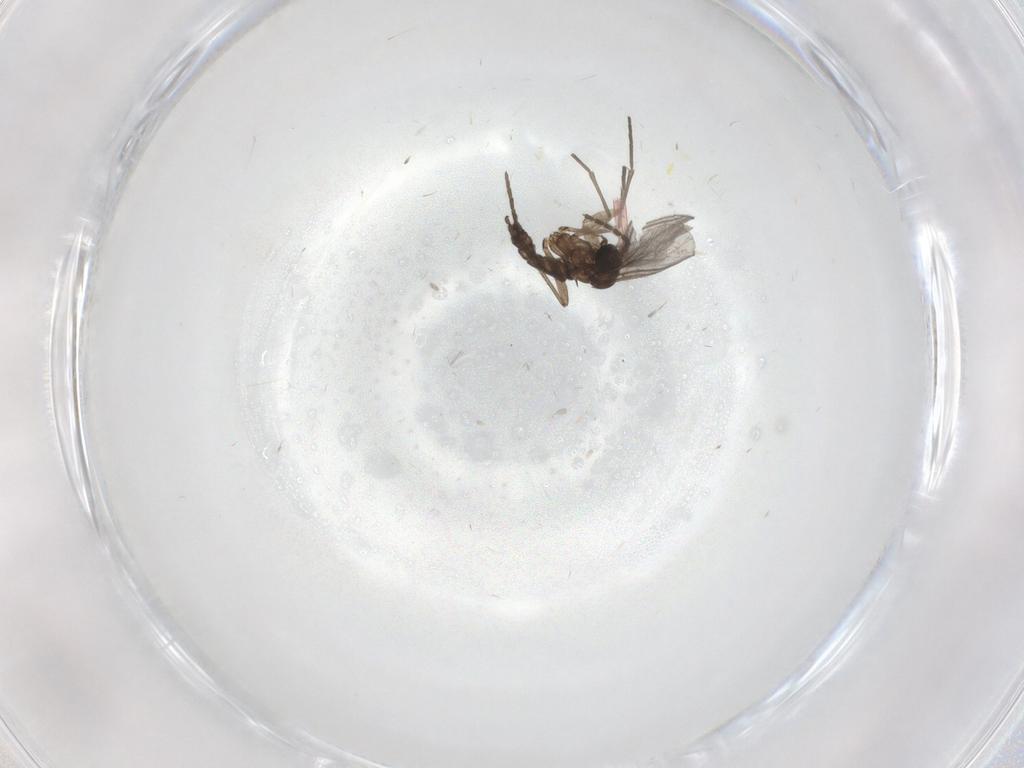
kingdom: Animalia
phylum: Arthropoda
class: Insecta
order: Diptera
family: Sciaridae
